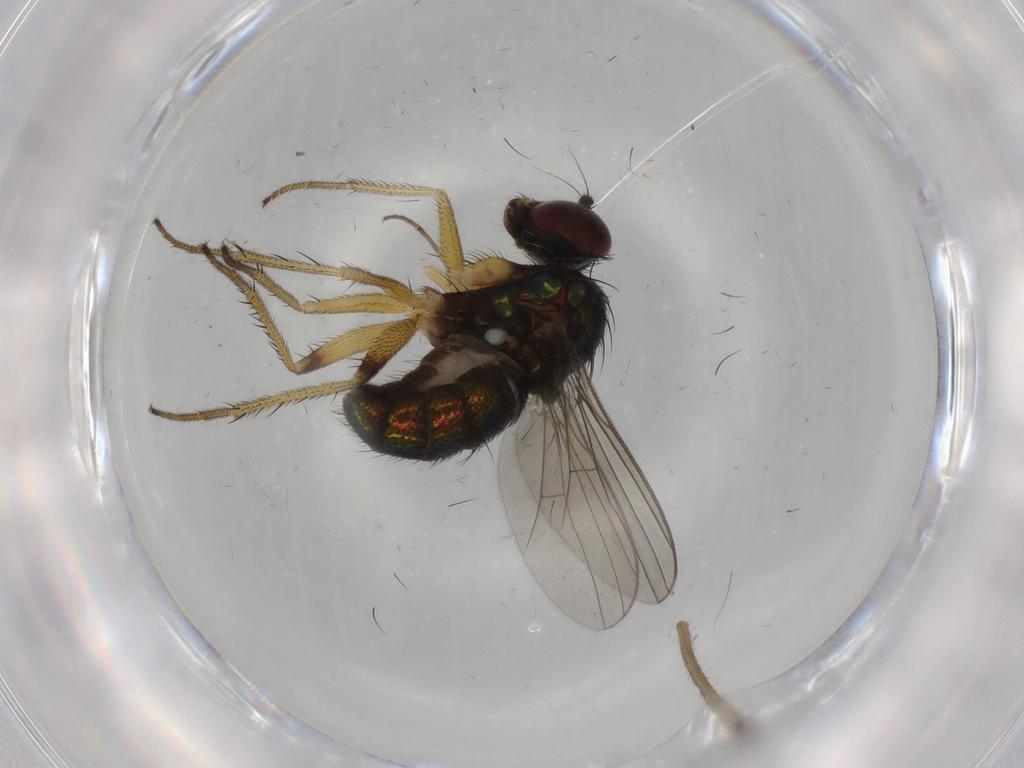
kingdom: Animalia
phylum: Arthropoda
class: Insecta
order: Diptera
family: Dolichopodidae
